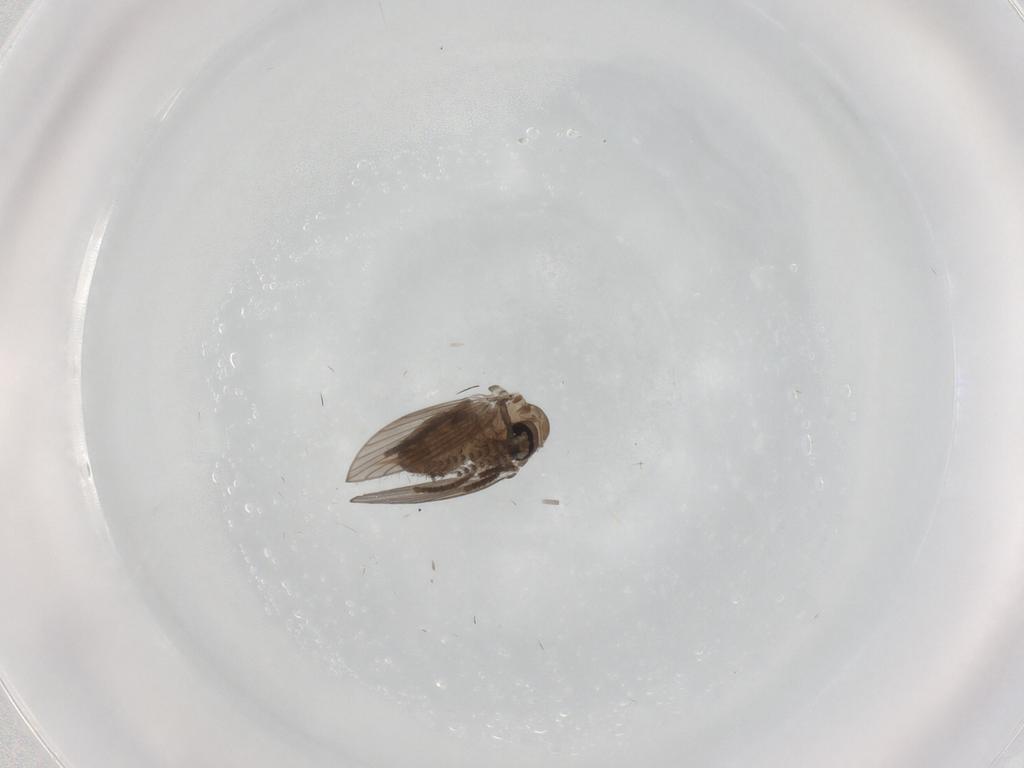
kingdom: Animalia
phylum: Arthropoda
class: Insecta
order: Diptera
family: Psychodidae
